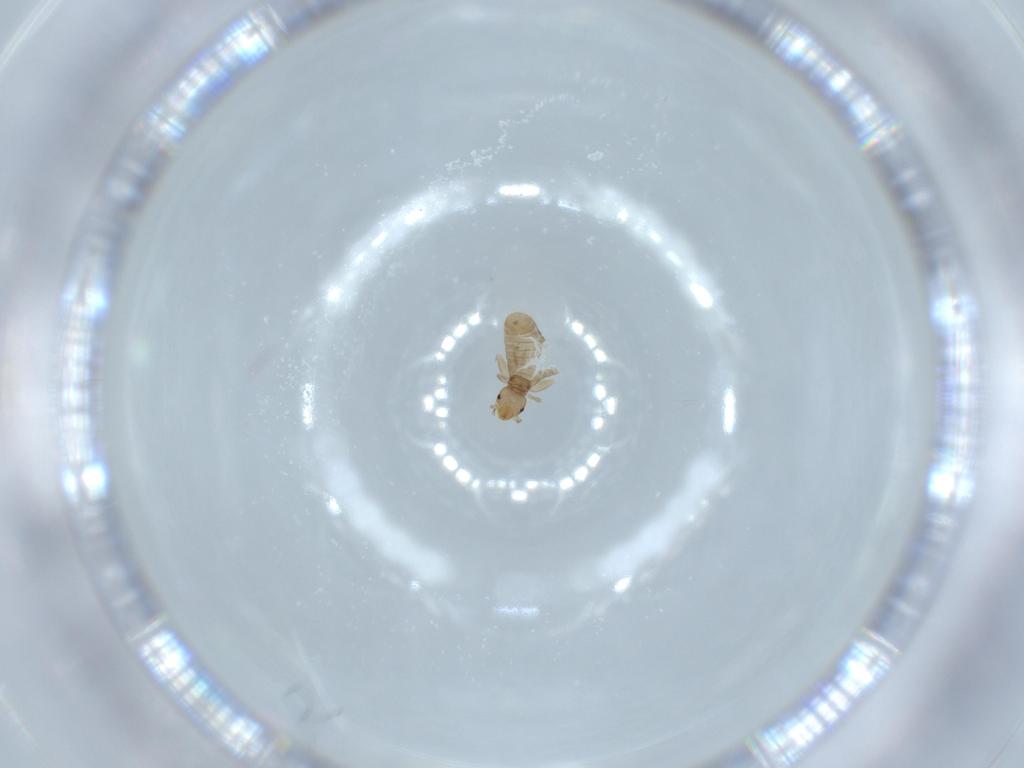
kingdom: Animalia
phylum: Arthropoda
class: Insecta
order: Psocodea
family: Liposcelididae
